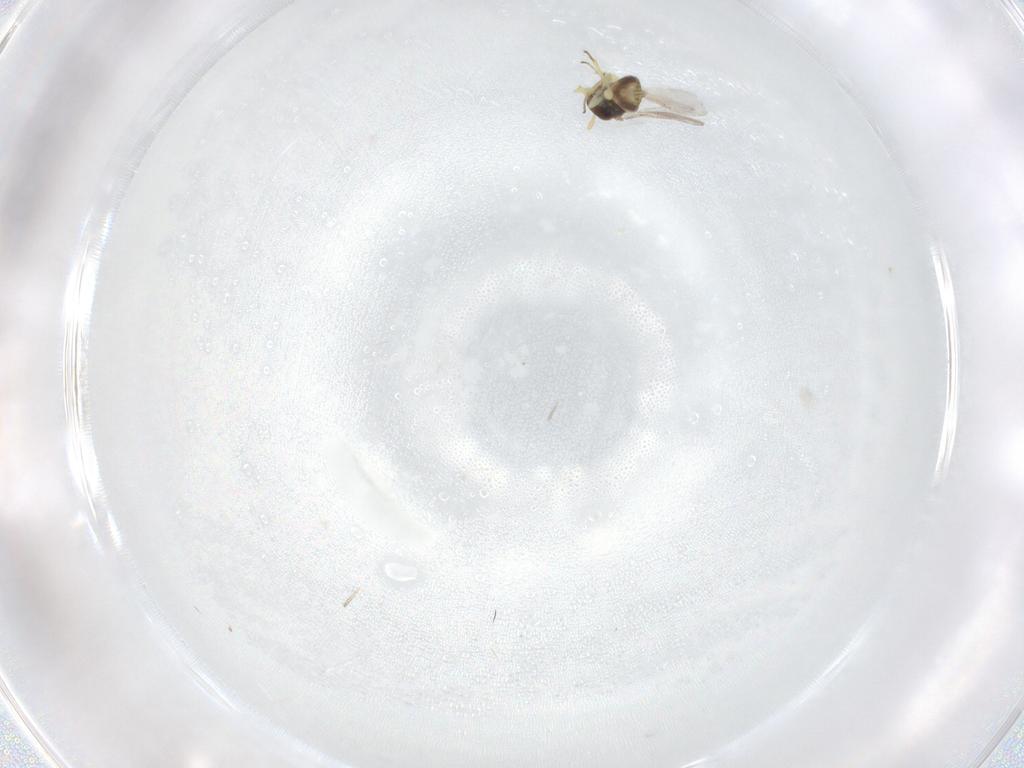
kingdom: Animalia
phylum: Arthropoda
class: Insecta
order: Hymenoptera
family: Aphelinidae
